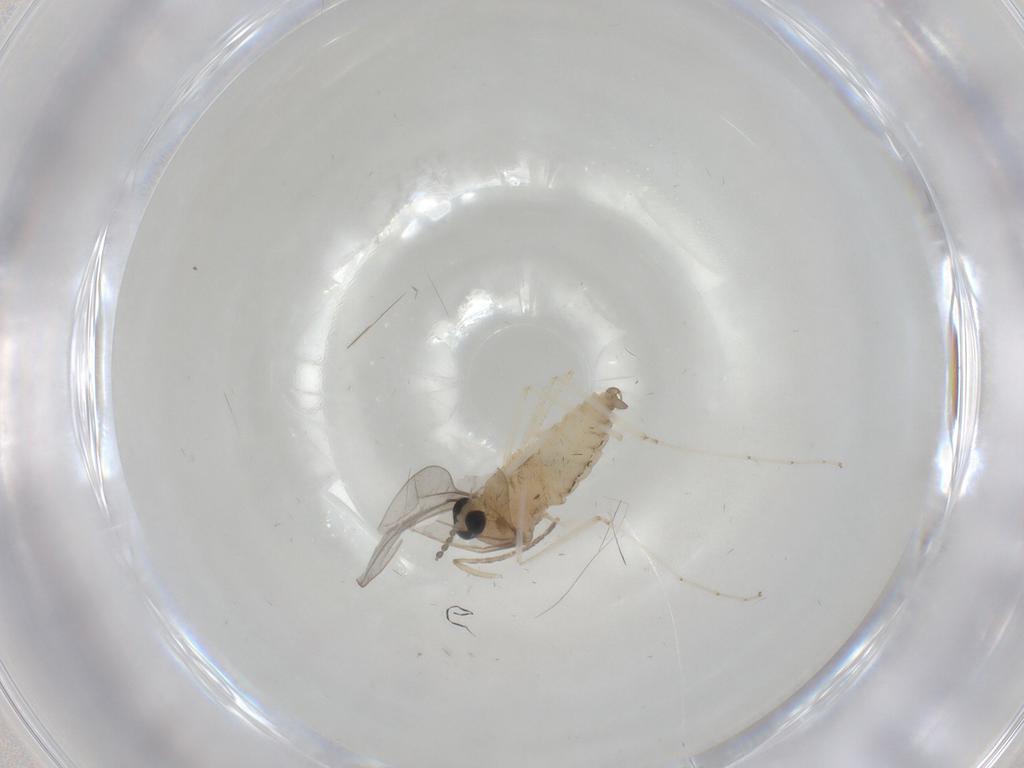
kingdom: Animalia
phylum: Arthropoda
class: Insecta
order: Diptera
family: Cecidomyiidae
